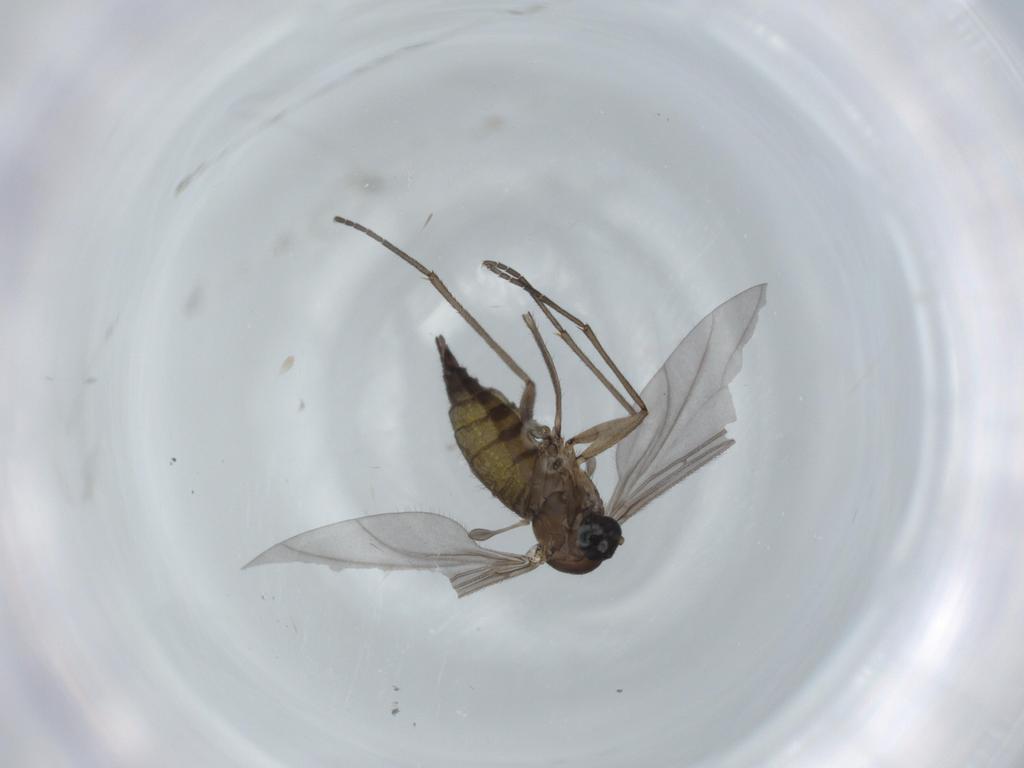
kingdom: Animalia
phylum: Arthropoda
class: Insecta
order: Diptera
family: Sciaridae
